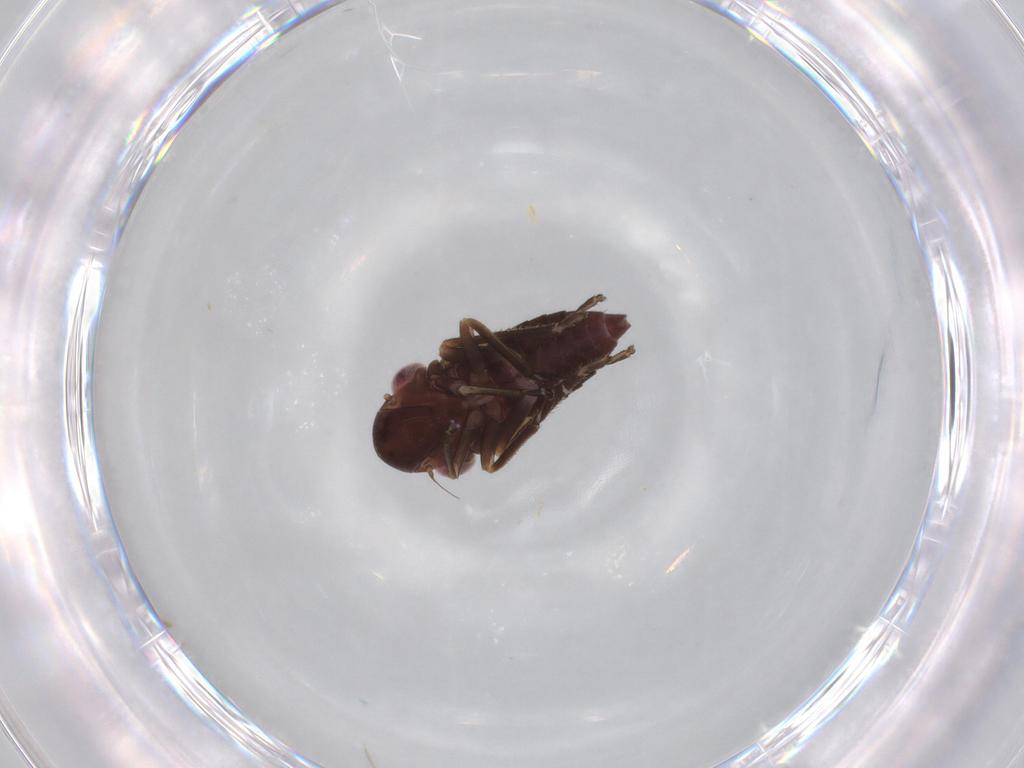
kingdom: Animalia
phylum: Arthropoda
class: Insecta
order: Hemiptera
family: Cicadellidae
